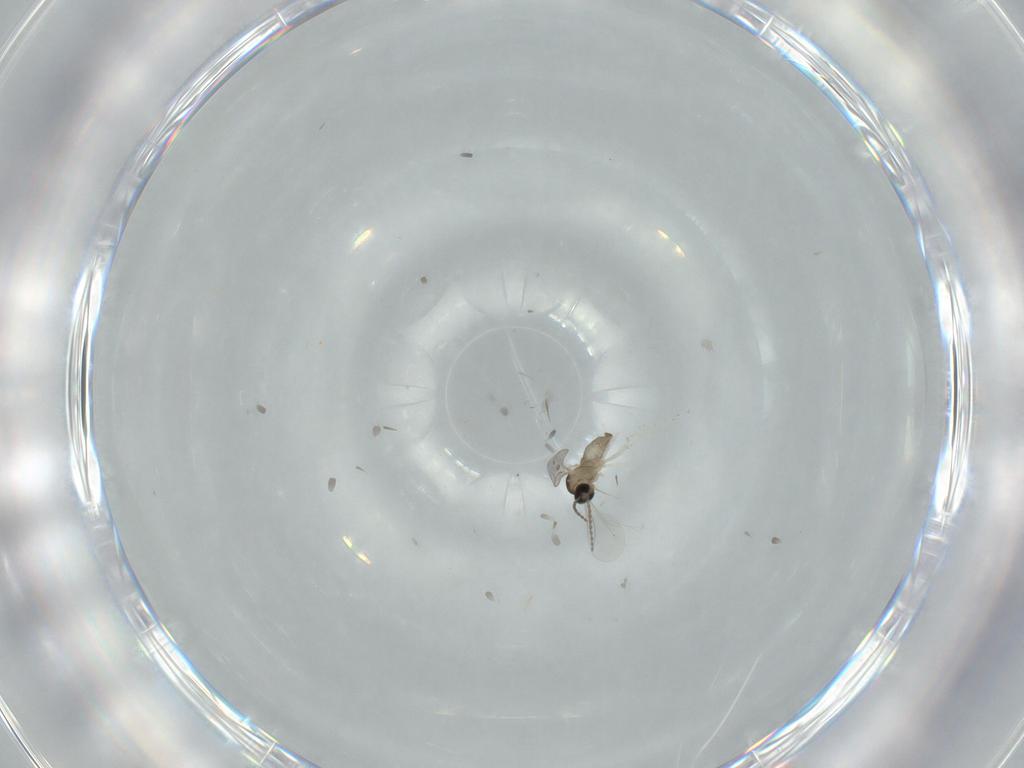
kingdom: Animalia
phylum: Arthropoda
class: Insecta
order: Diptera
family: Cecidomyiidae
